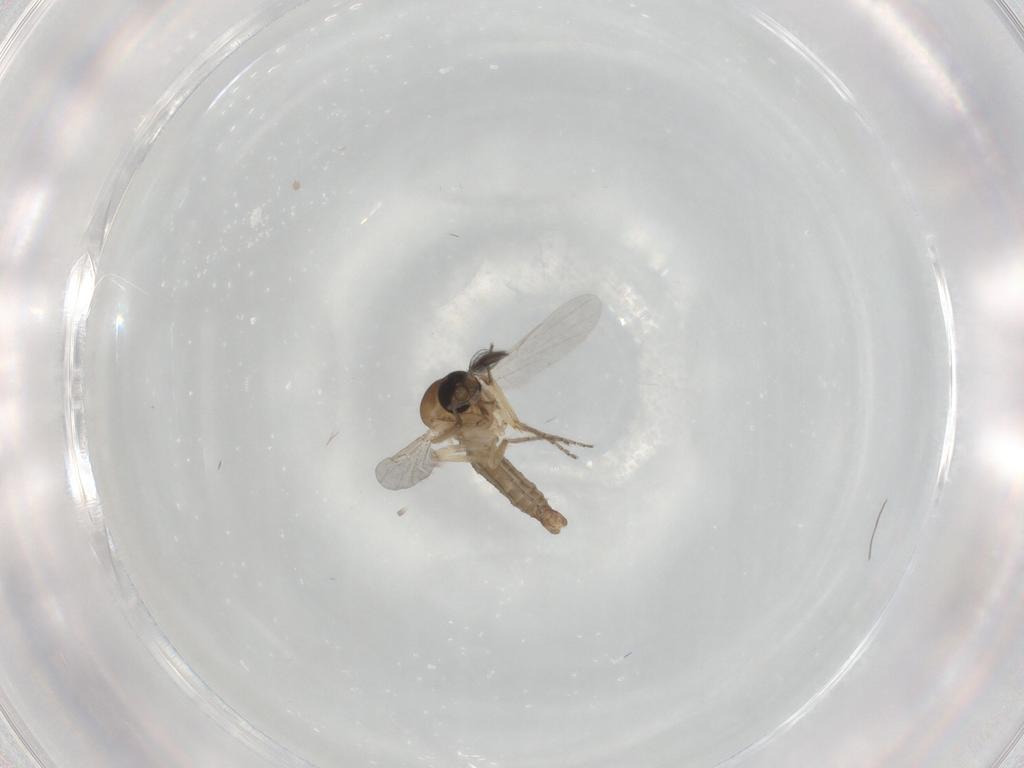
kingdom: Animalia
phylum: Arthropoda
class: Insecta
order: Diptera
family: Ceratopogonidae
